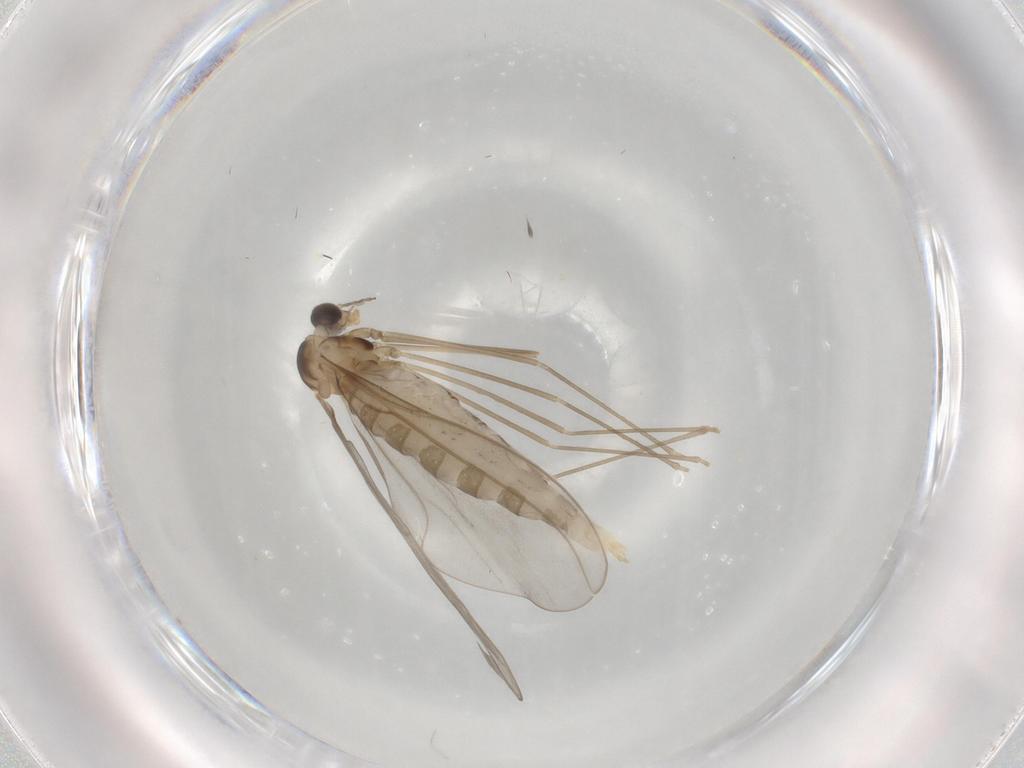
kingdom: Animalia
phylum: Arthropoda
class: Insecta
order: Diptera
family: Cecidomyiidae
